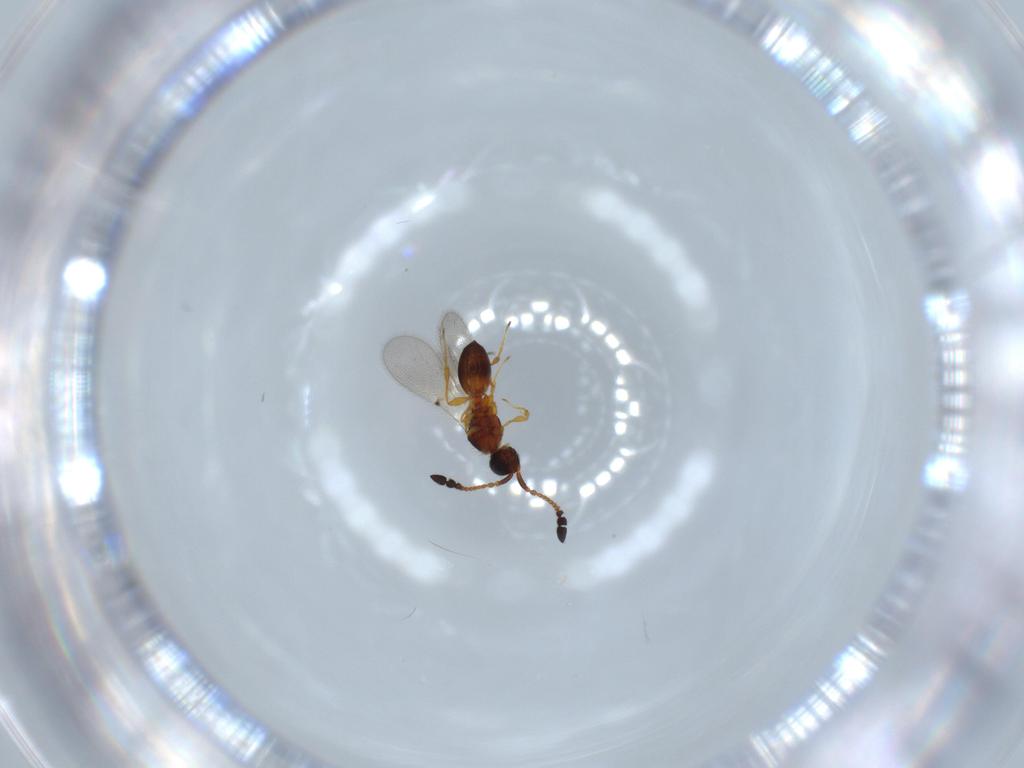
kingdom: Animalia
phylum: Arthropoda
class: Insecta
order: Hymenoptera
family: Diapriidae
